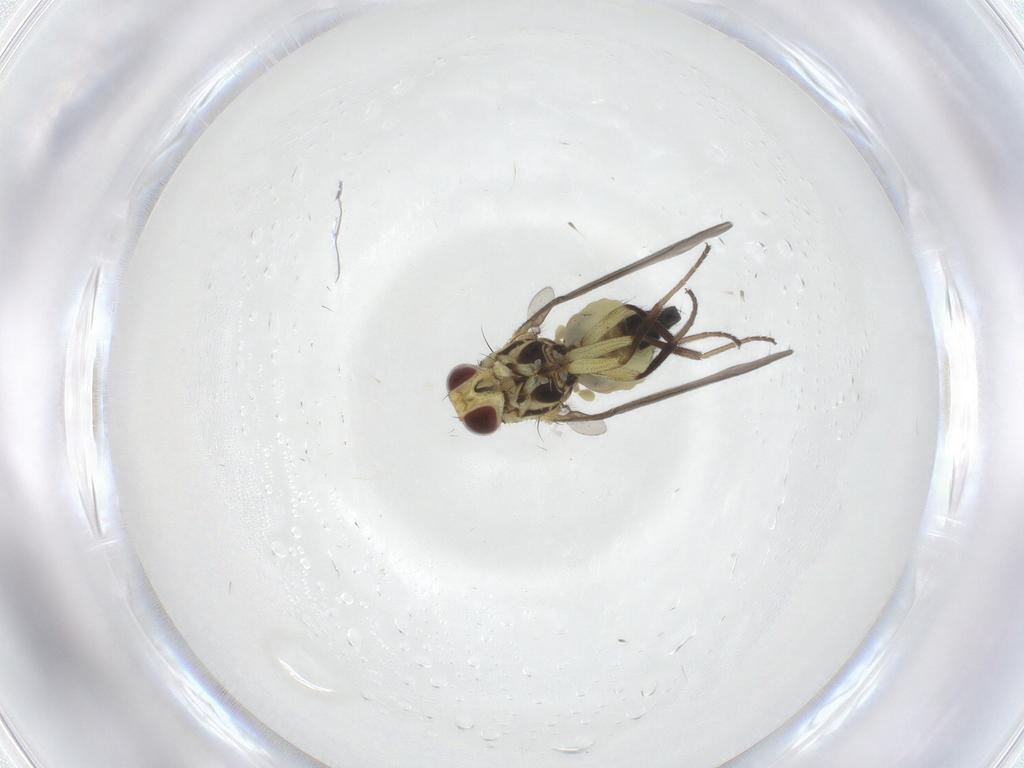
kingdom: Animalia
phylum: Arthropoda
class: Insecta
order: Diptera
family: Agromyzidae
